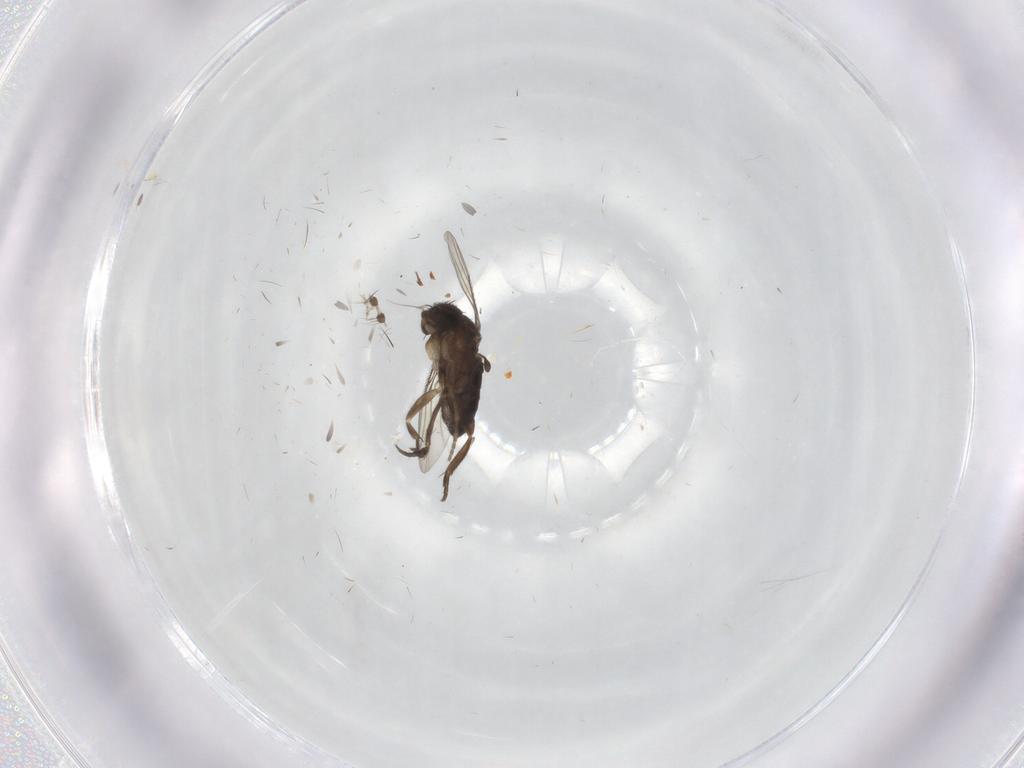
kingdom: Animalia
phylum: Arthropoda
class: Insecta
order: Diptera
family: Sciaridae
